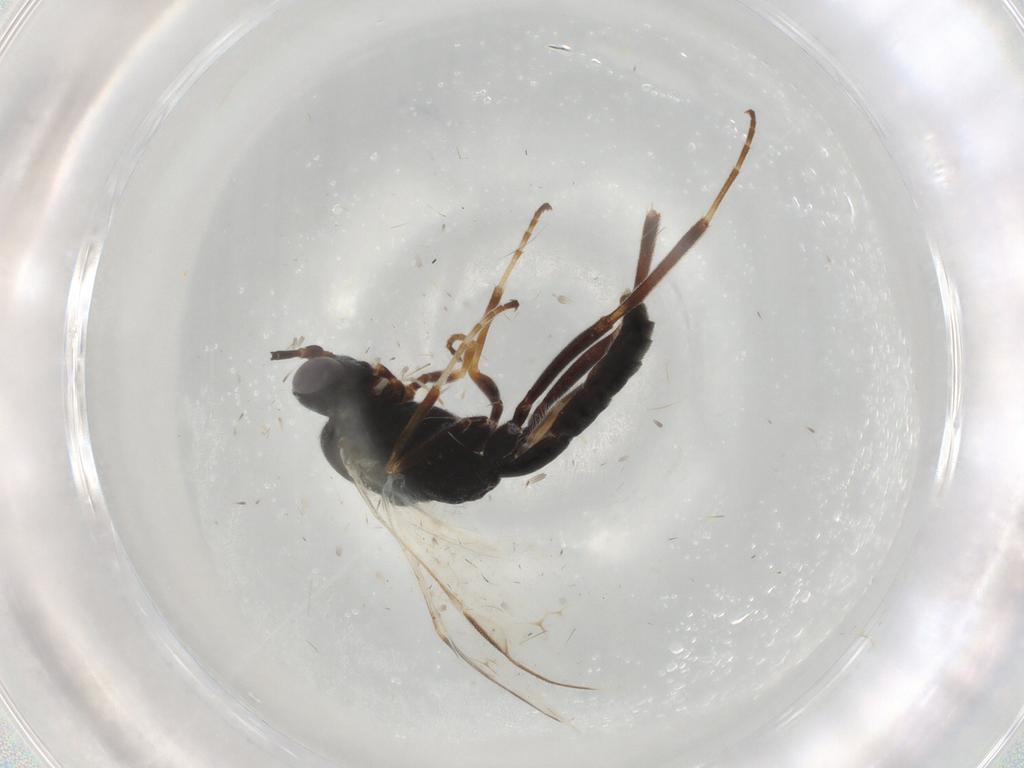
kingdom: Animalia
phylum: Arthropoda
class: Insecta
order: Hymenoptera
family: Ichneumonidae
